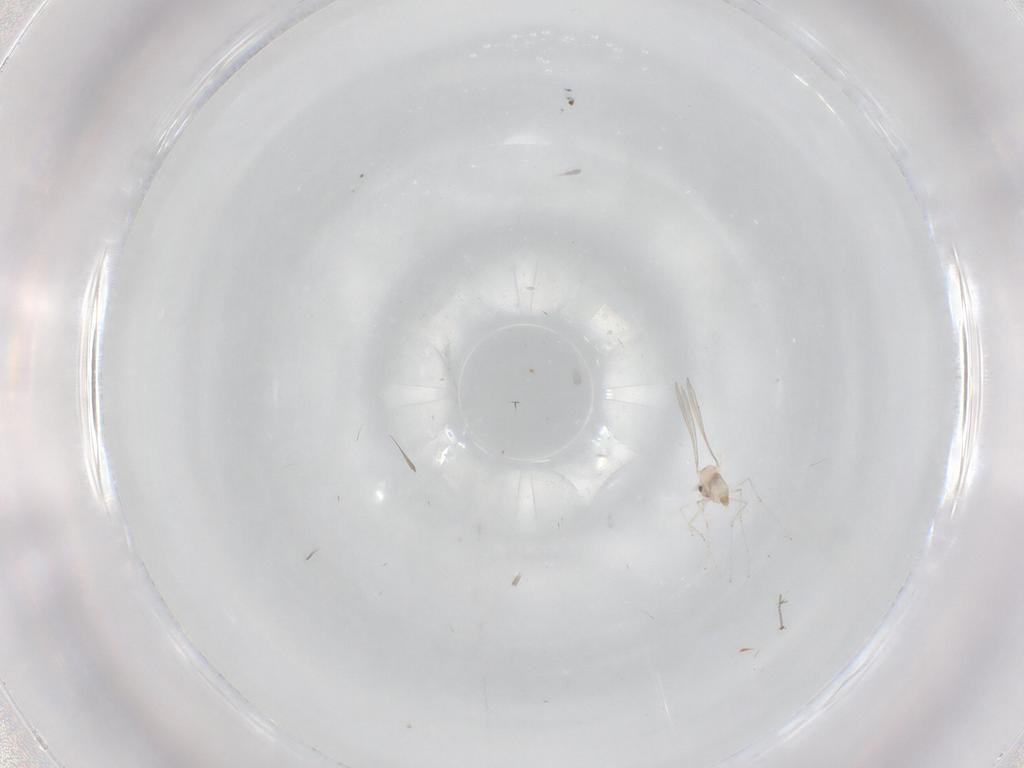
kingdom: Animalia
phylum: Arthropoda
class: Insecta
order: Diptera
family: Cecidomyiidae
